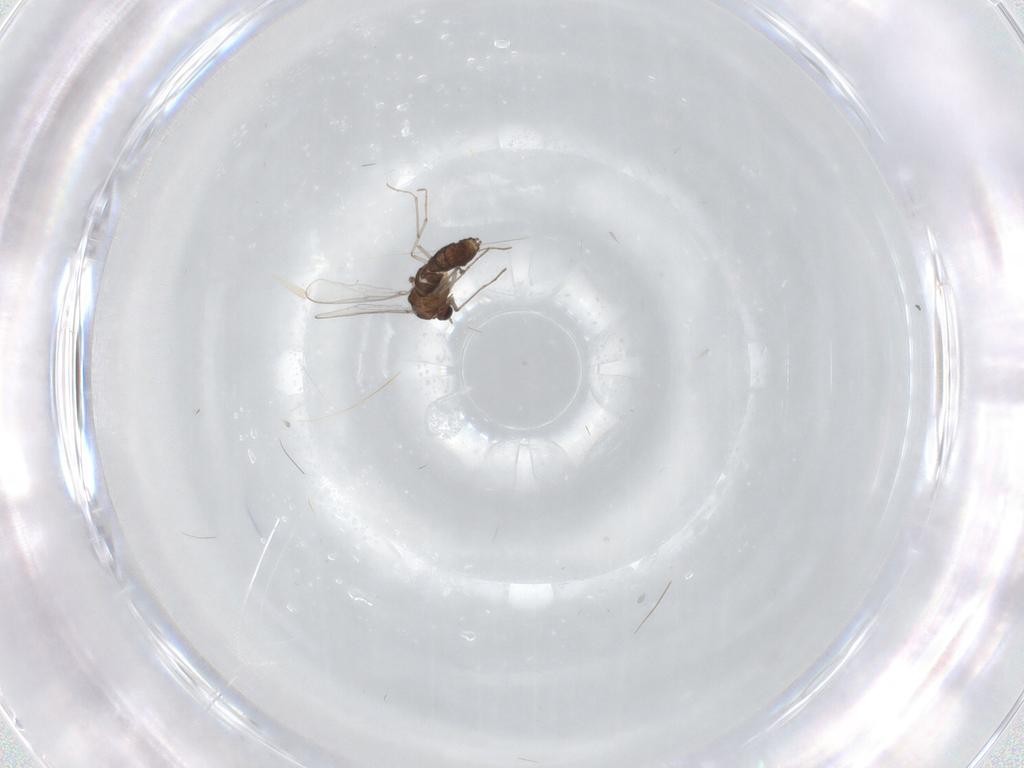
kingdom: Animalia
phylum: Arthropoda
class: Insecta
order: Diptera
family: Chironomidae
